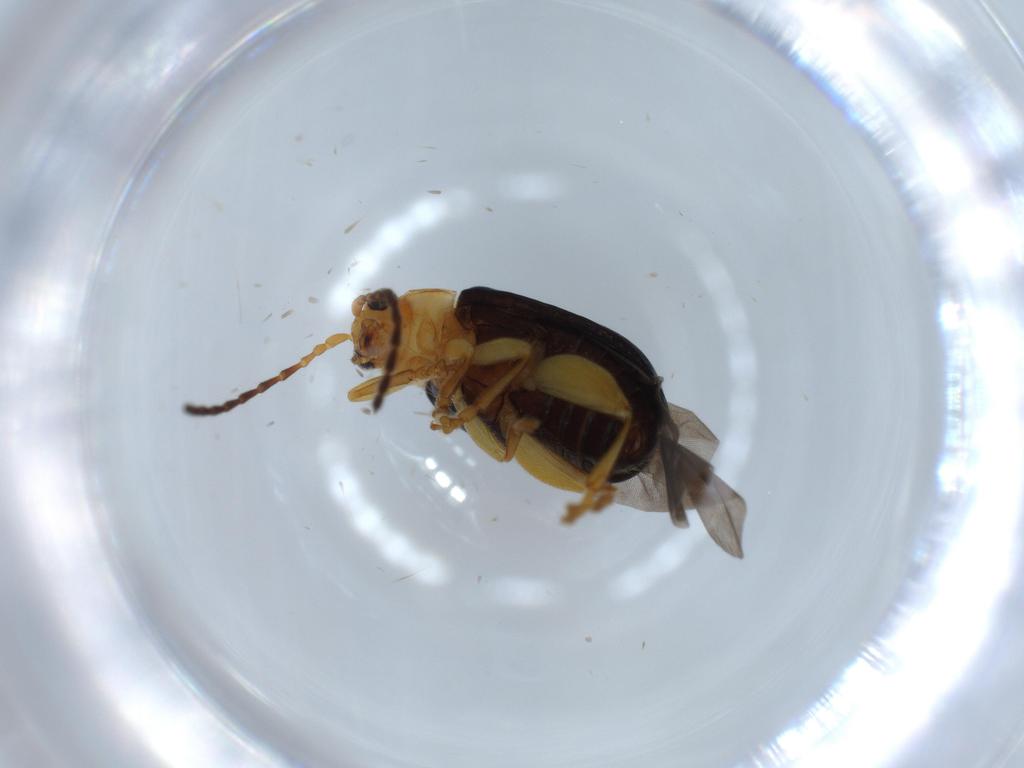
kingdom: Animalia
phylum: Arthropoda
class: Insecta
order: Coleoptera
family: Chrysomelidae
